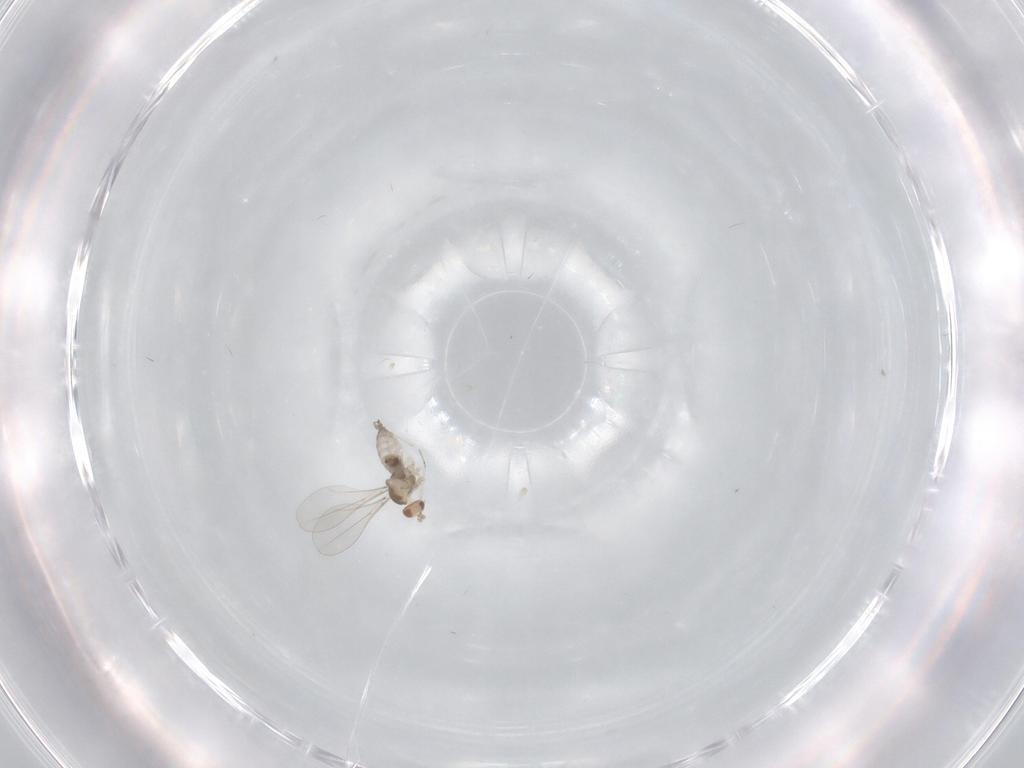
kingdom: Animalia
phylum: Arthropoda
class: Insecta
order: Diptera
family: Cecidomyiidae
